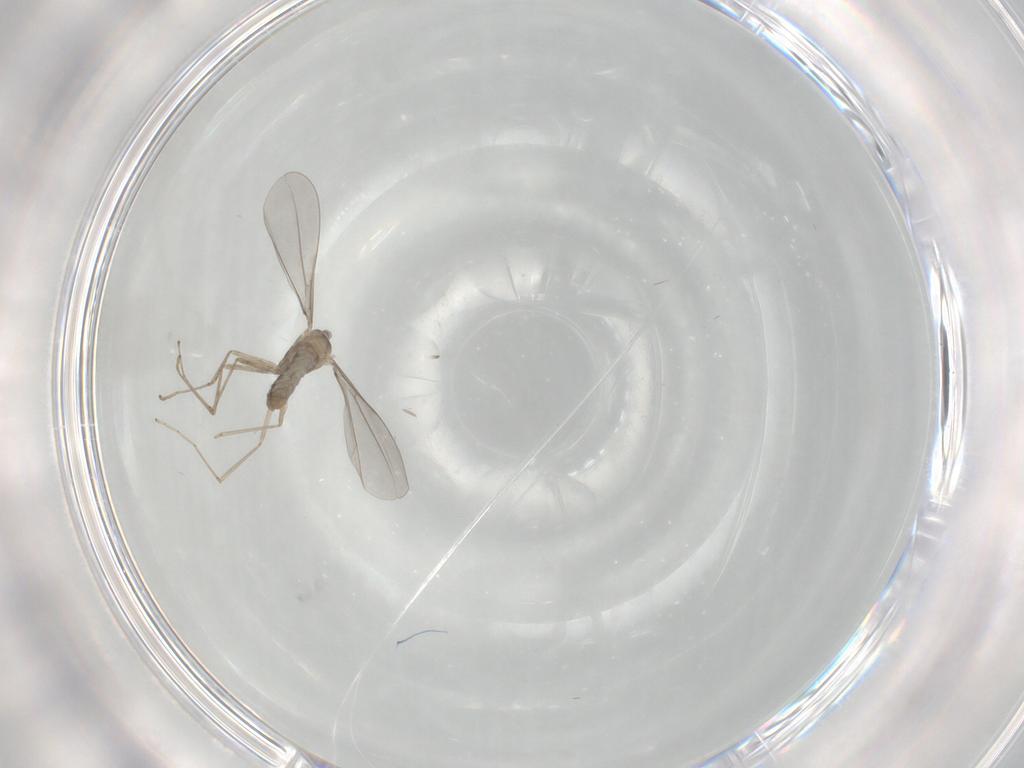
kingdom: Animalia
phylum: Arthropoda
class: Insecta
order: Diptera
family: Cecidomyiidae
